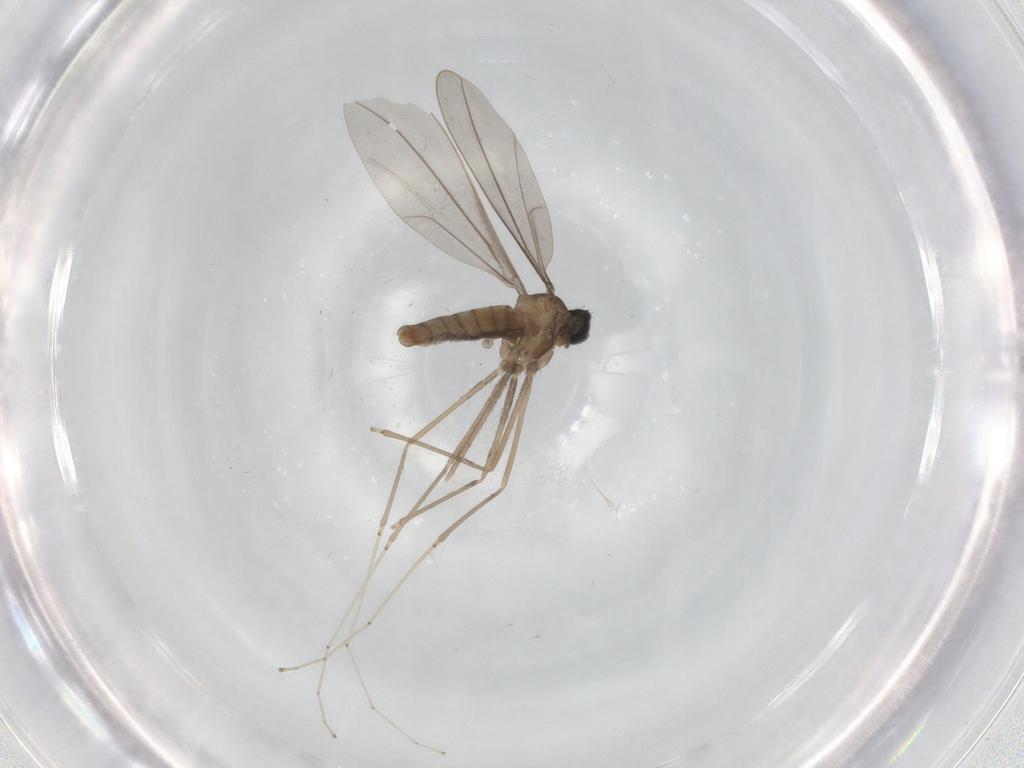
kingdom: Animalia
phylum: Arthropoda
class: Insecta
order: Diptera
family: Cecidomyiidae
